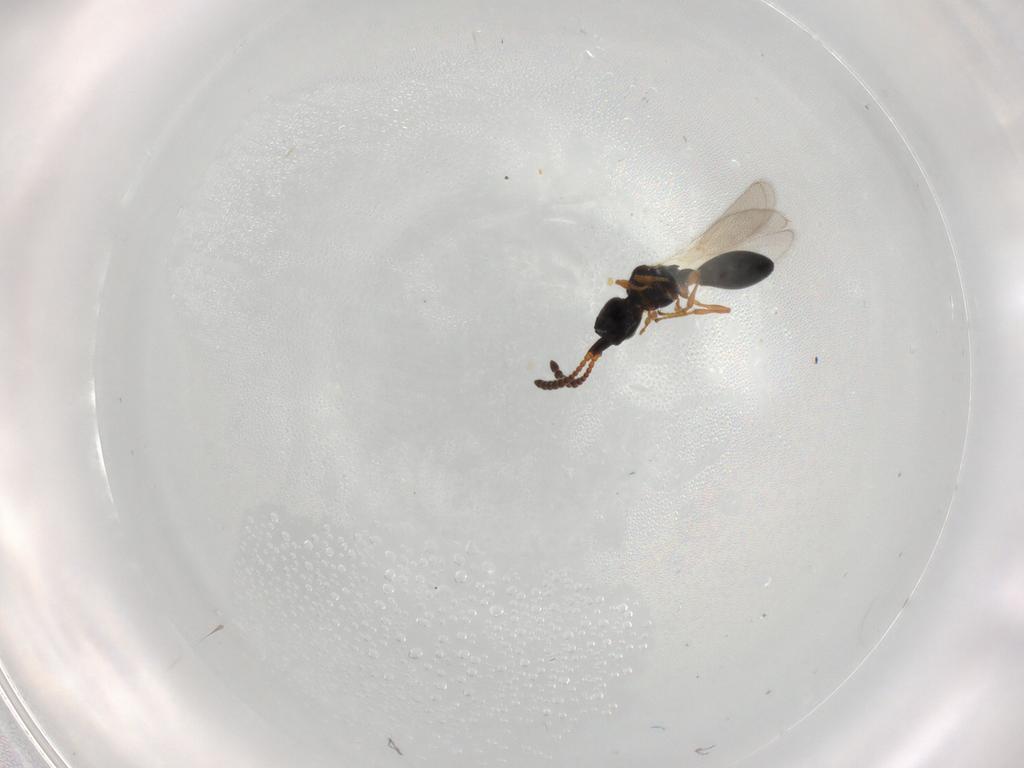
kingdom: Animalia
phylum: Arthropoda
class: Insecta
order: Hymenoptera
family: Diapriidae
